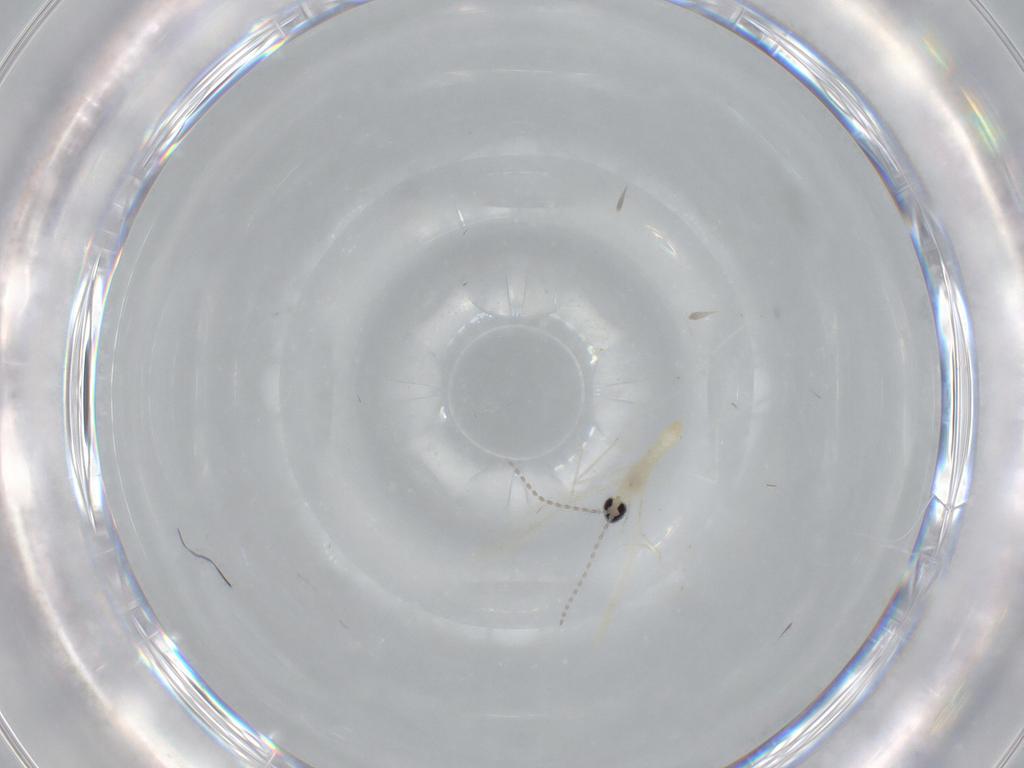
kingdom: Animalia
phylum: Arthropoda
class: Insecta
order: Diptera
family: Cecidomyiidae
